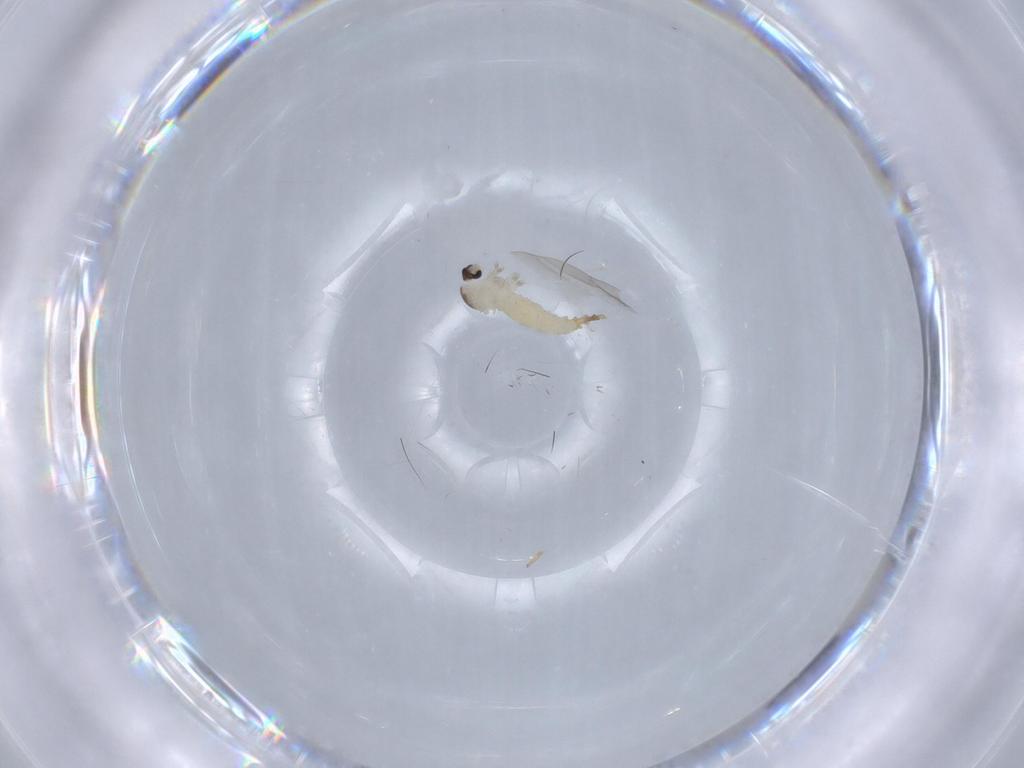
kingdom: Animalia
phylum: Arthropoda
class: Insecta
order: Diptera
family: Cecidomyiidae
